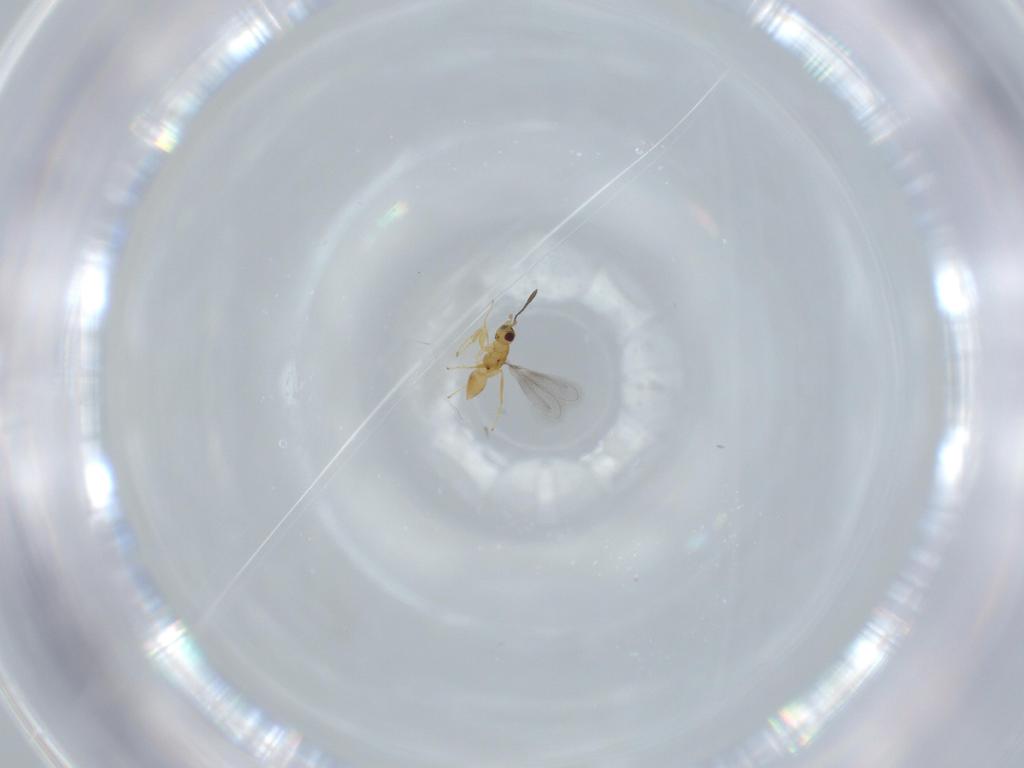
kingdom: Animalia
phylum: Arthropoda
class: Insecta
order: Hymenoptera
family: Mymaridae
